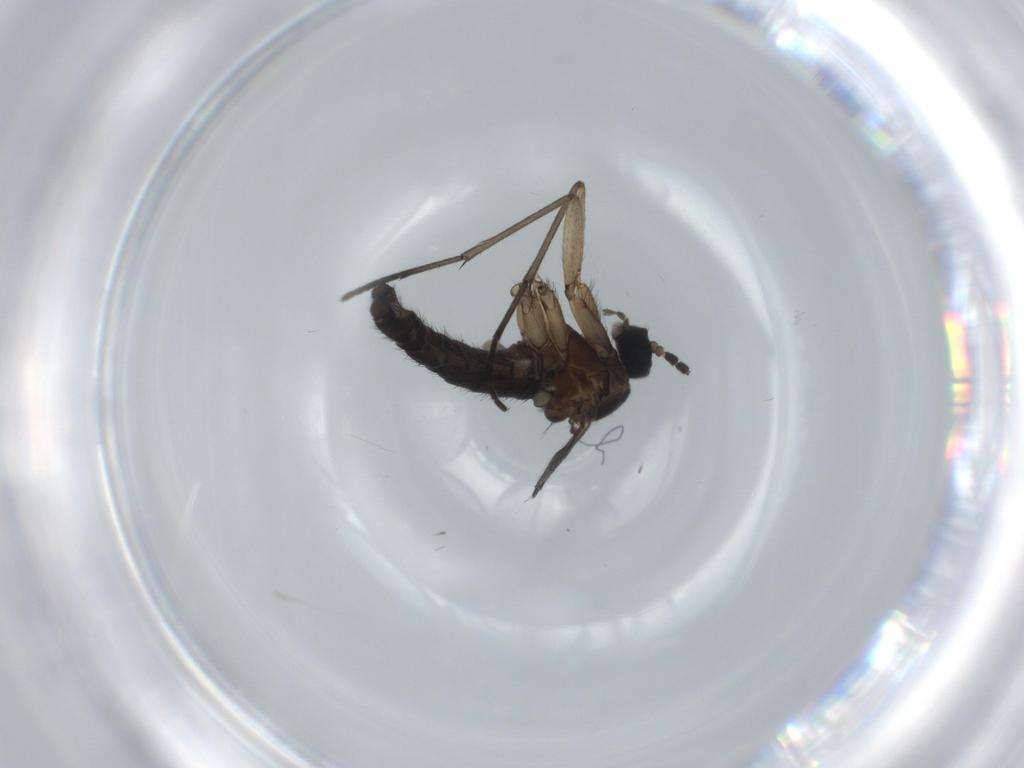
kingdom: Animalia
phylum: Arthropoda
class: Insecta
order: Diptera
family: Sciaridae
